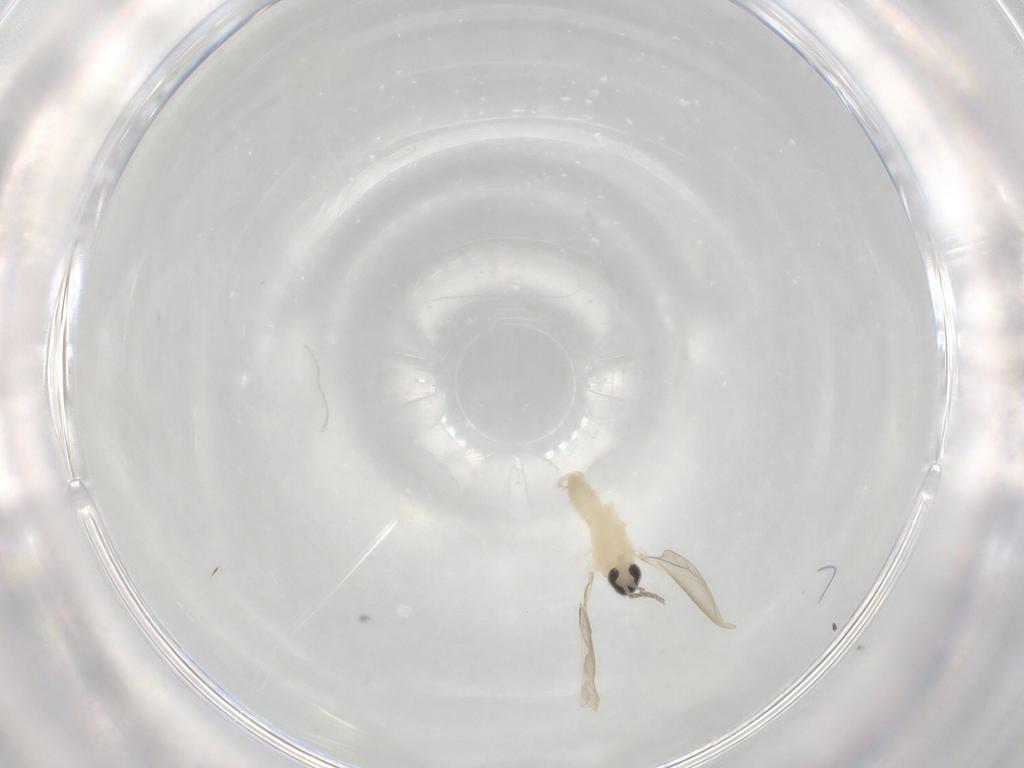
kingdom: Animalia
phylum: Arthropoda
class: Insecta
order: Diptera
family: Cecidomyiidae
